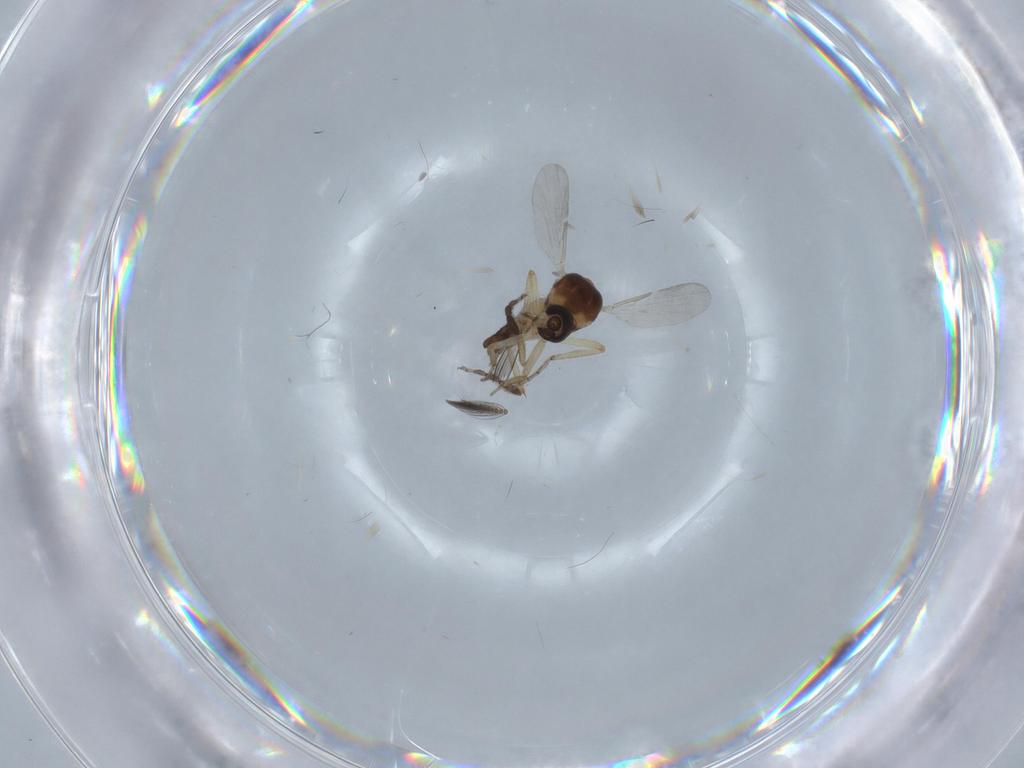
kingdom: Animalia
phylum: Arthropoda
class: Insecta
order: Diptera
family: Ceratopogonidae
